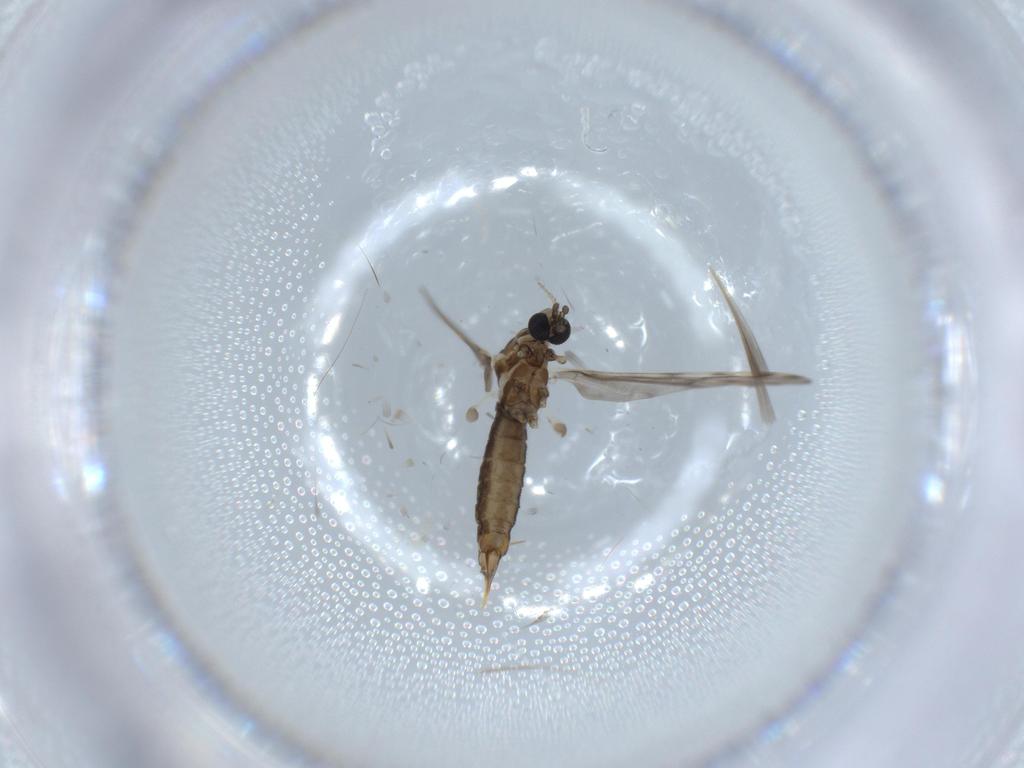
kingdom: Animalia
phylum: Arthropoda
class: Insecta
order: Diptera
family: Limoniidae
